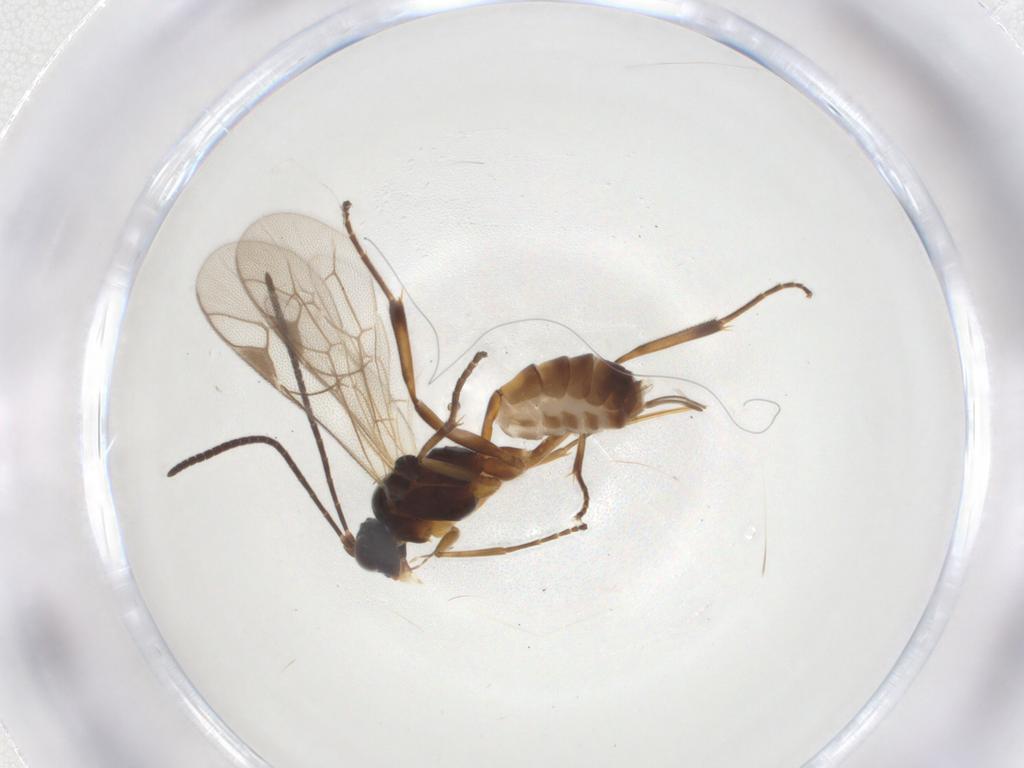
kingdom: Animalia
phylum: Arthropoda
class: Insecta
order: Hymenoptera
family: Ichneumonidae
